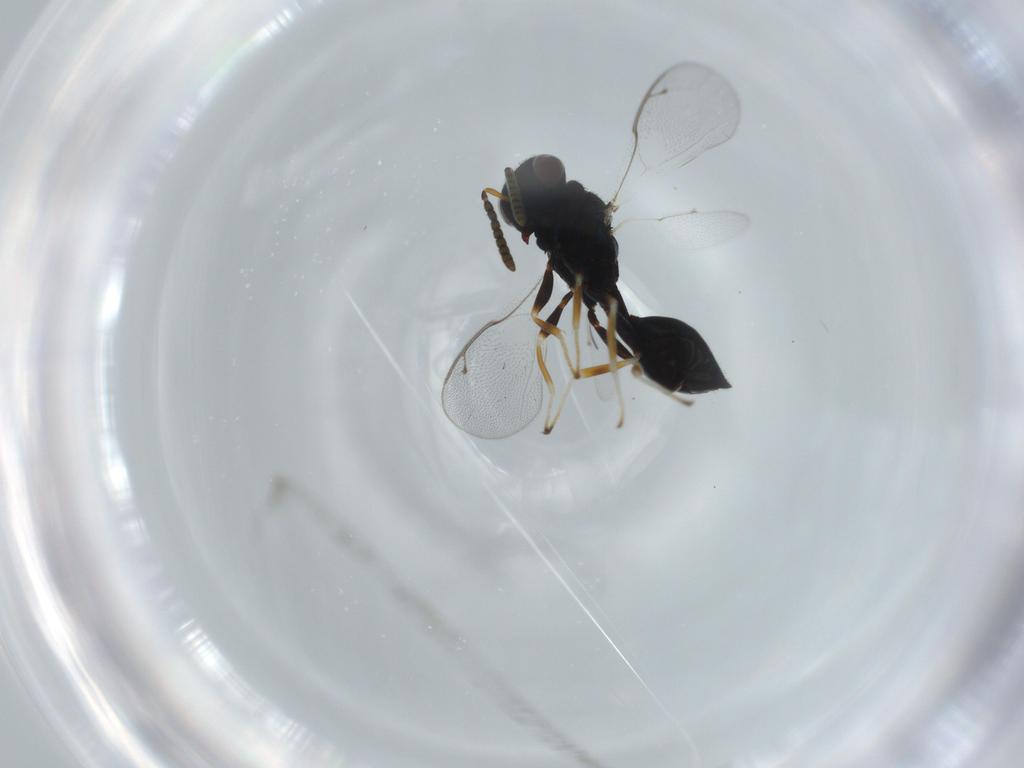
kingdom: Animalia
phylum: Arthropoda
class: Insecta
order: Hymenoptera
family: Pteromalidae
